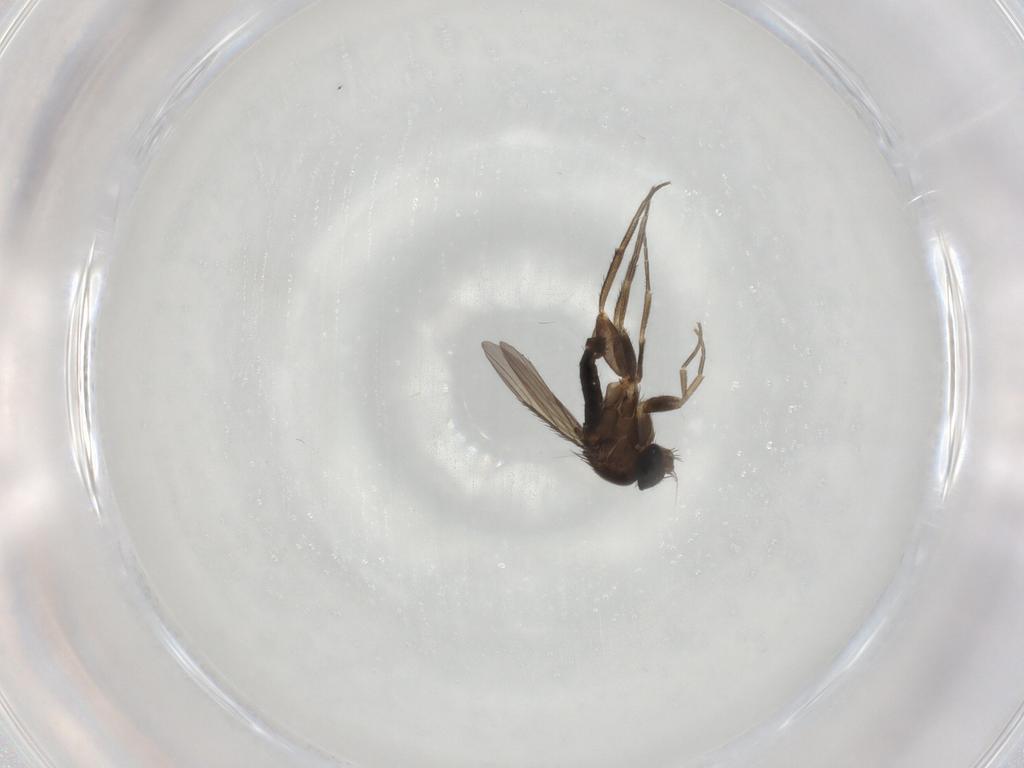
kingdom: Animalia
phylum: Arthropoda
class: Insecta
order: Diptera
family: Phoridae
